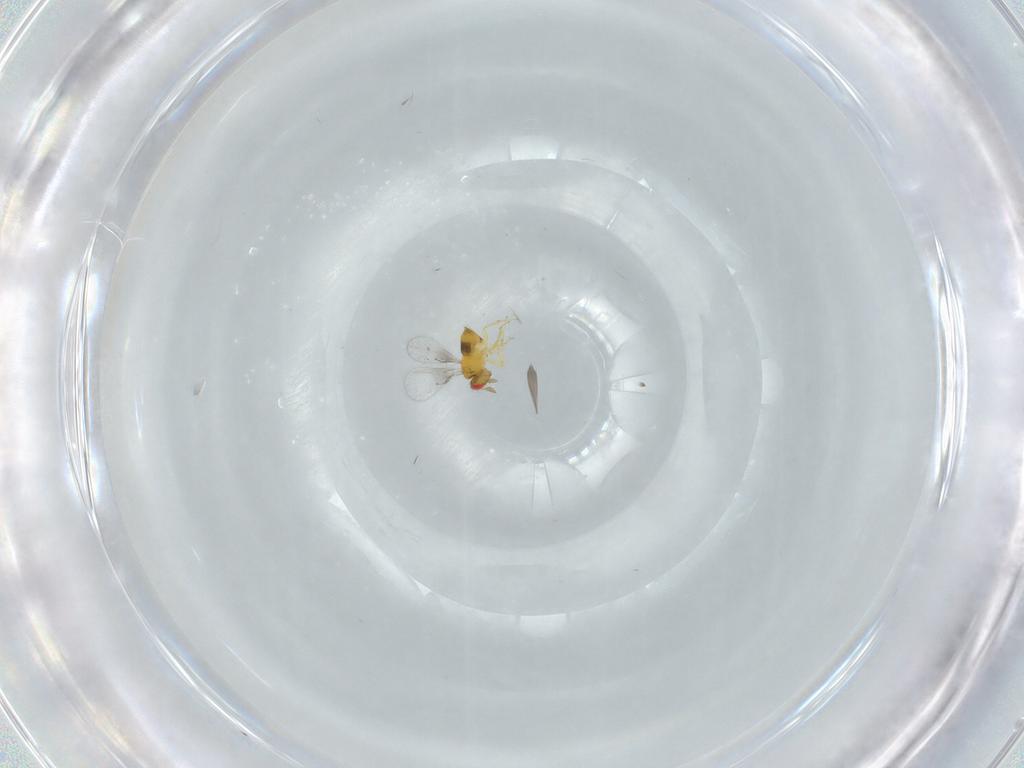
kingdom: Animalia
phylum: Arthropoda
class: Insecta
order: Hymenoptera
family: Trichogrammatidae
